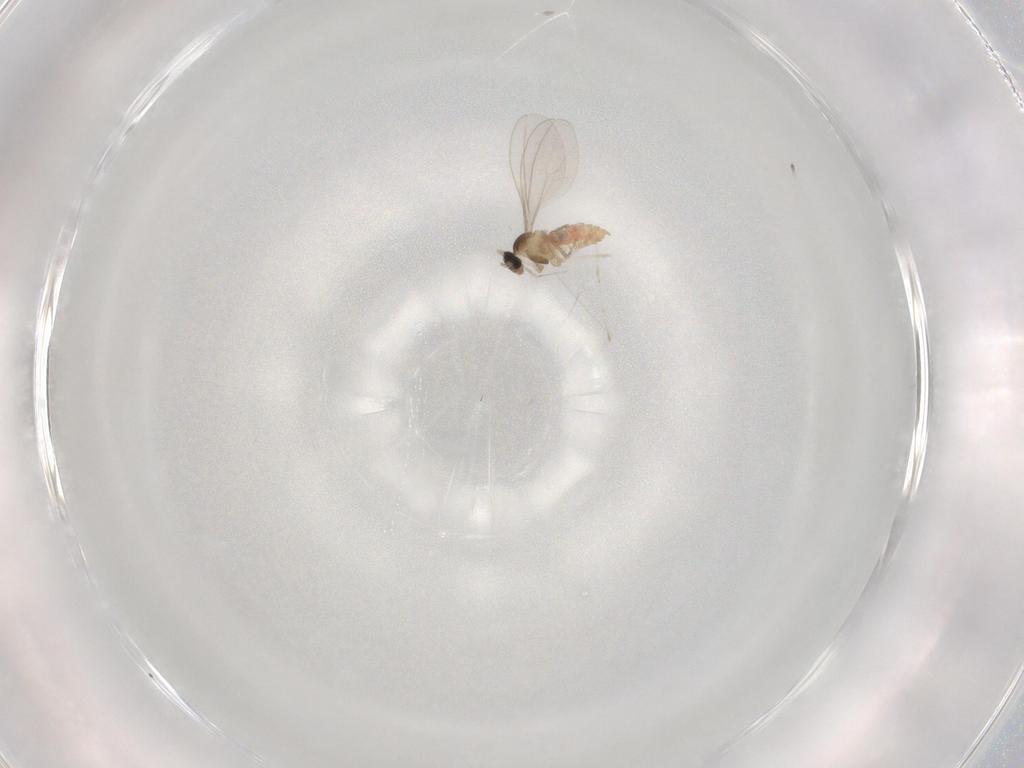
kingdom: Animalia
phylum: Arthropoda
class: Insecta
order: Diptera
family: Cecidomyiidae
